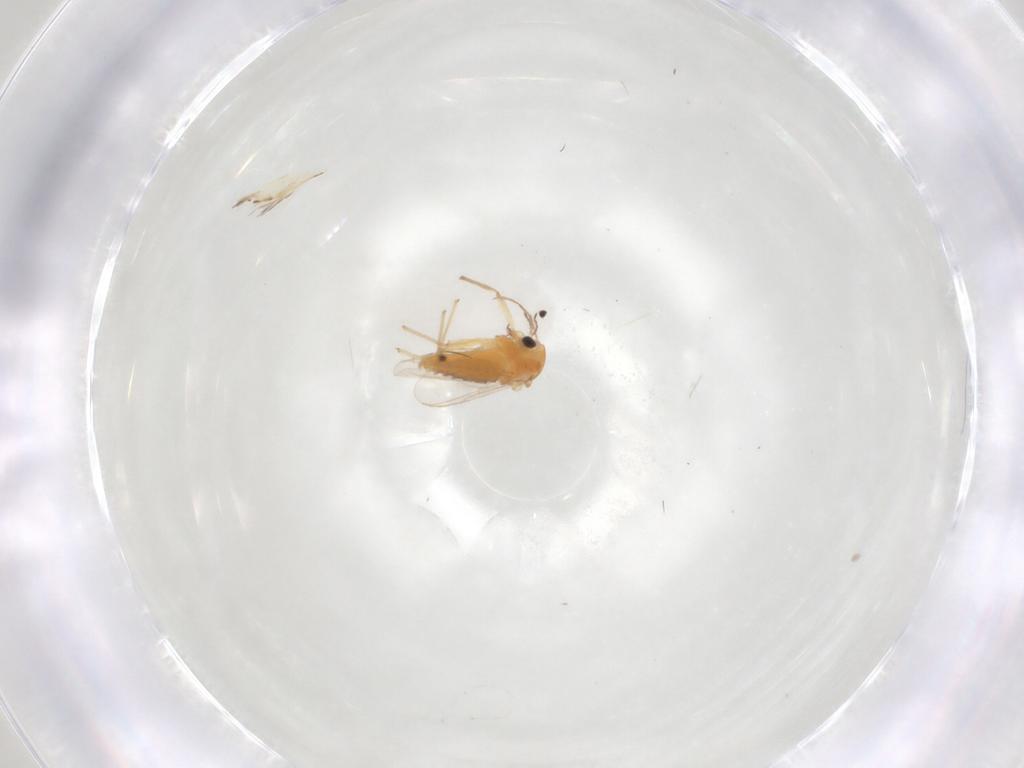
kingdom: Animalia
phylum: Arthropoda
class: Insecta
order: Diptera
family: Chironomidae
